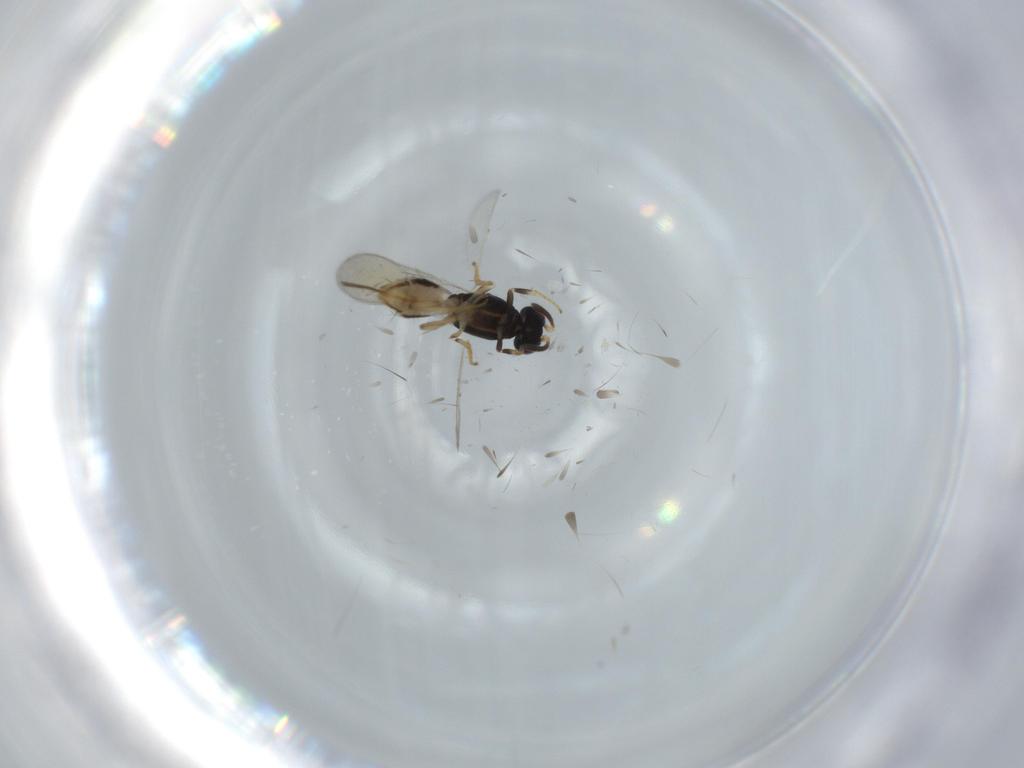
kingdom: Animalia
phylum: Arthropoda
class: Insecta
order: Hymenoptera
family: Eupelmidae
